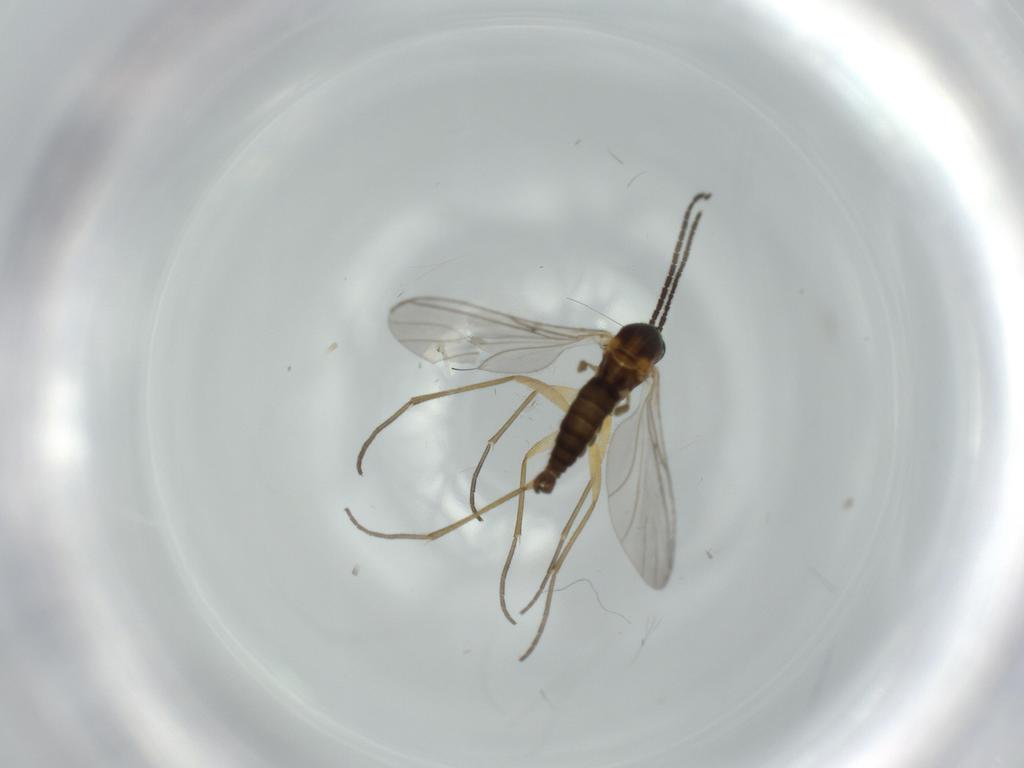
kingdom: Animalia
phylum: Arthropoda
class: Insecta
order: Diptera
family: Sciaridae
